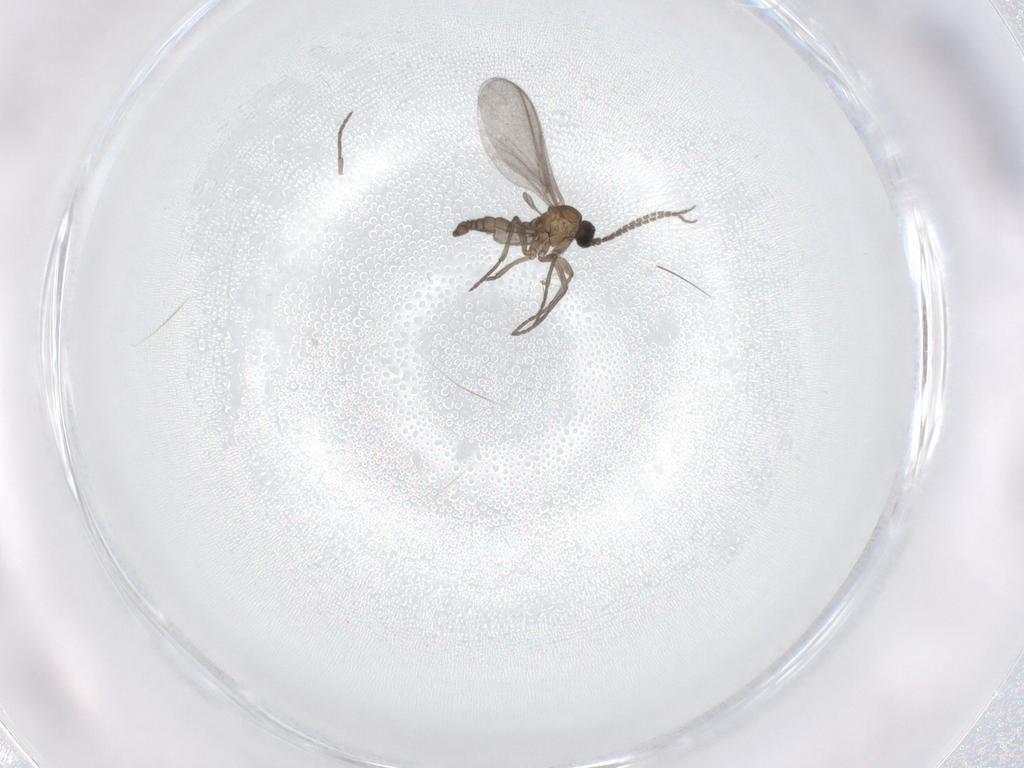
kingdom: Animalia
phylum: Arthropoda
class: Insecta
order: Diptera
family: Sciaridae
